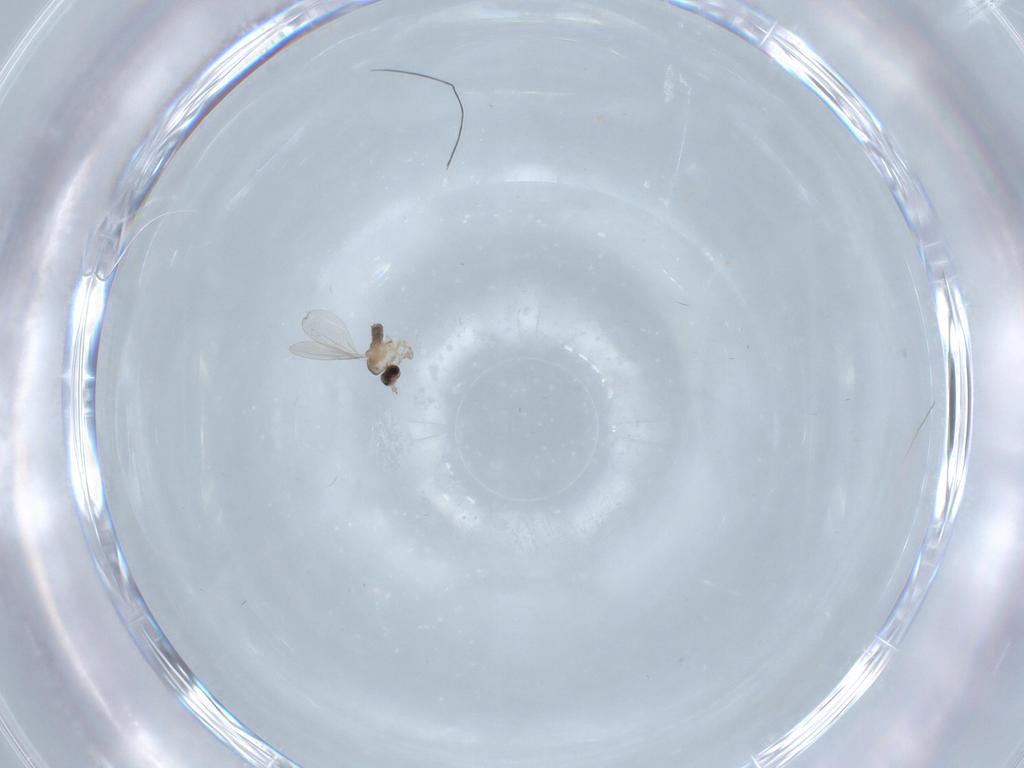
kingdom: Animalia
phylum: Arthropoda
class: Insecta
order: Diptera
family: Cecidomyiidae
